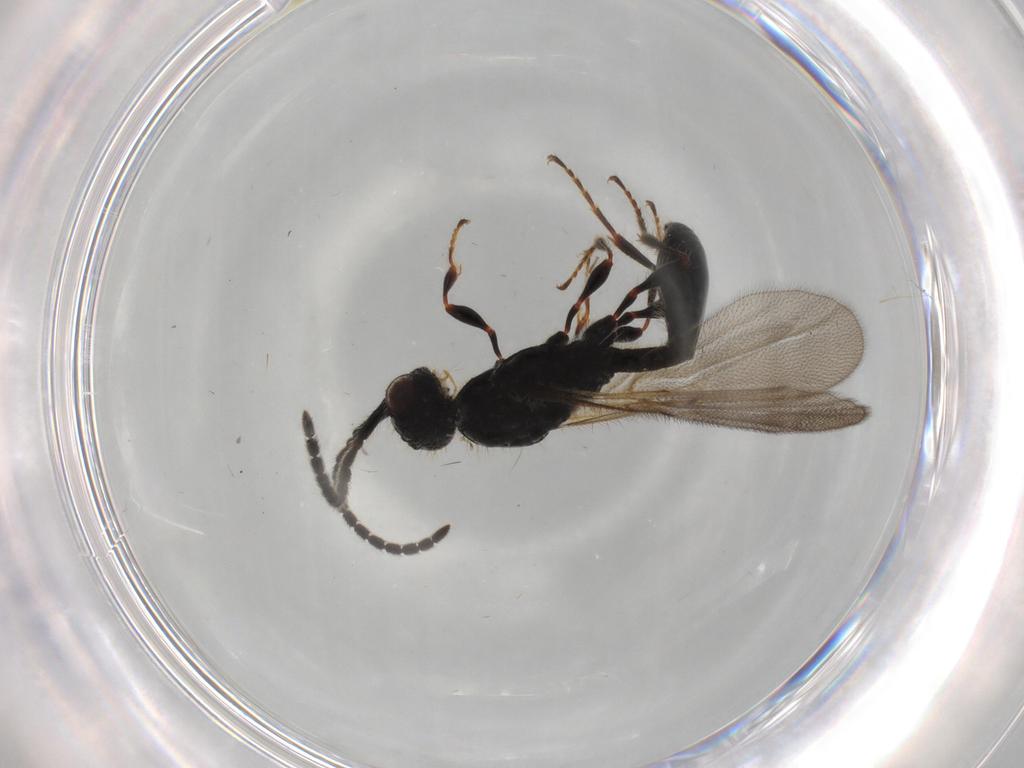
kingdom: Animalia
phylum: Arthropoda
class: Insecta
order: Hymenoptera
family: Diapriidae
